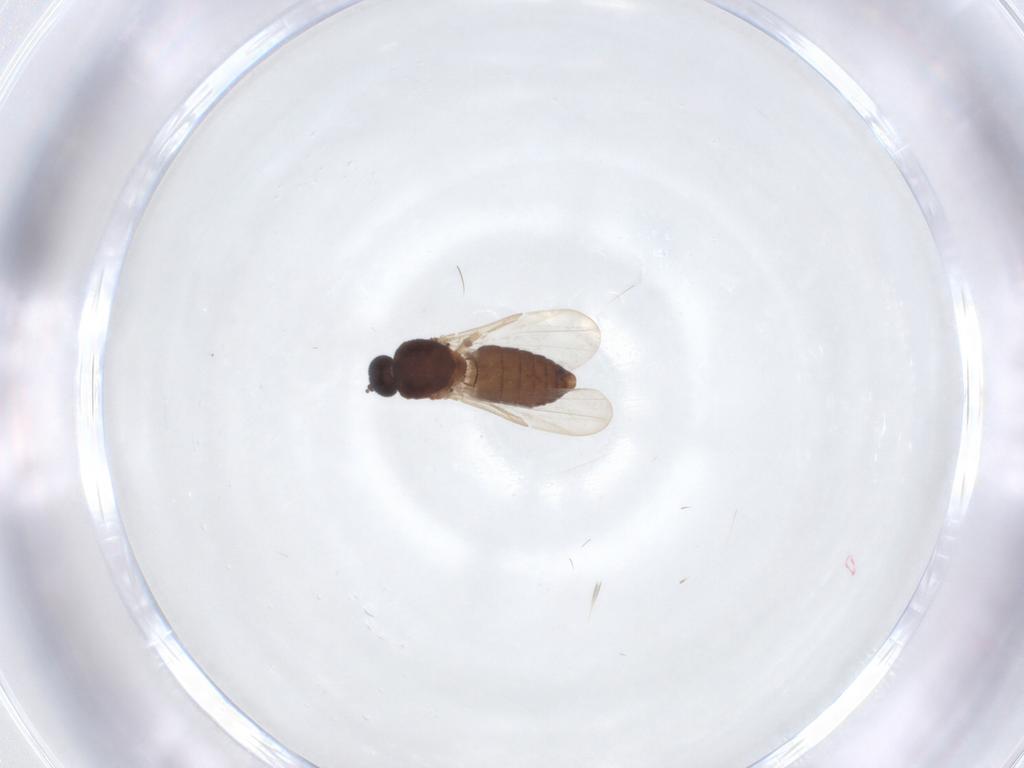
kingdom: Animalia
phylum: Arthropoda
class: Insecta
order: Diptera
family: Ceratopogonidae
